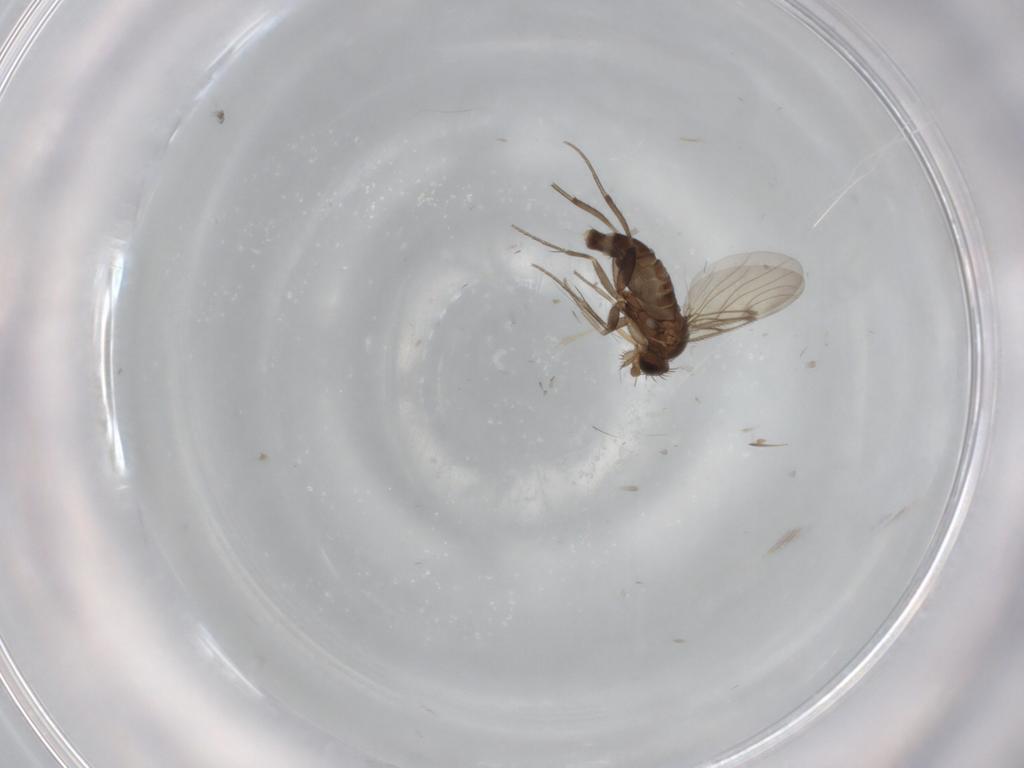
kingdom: Animalia
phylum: Arthropoda
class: Insecta
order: Diptera
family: Phoridae
